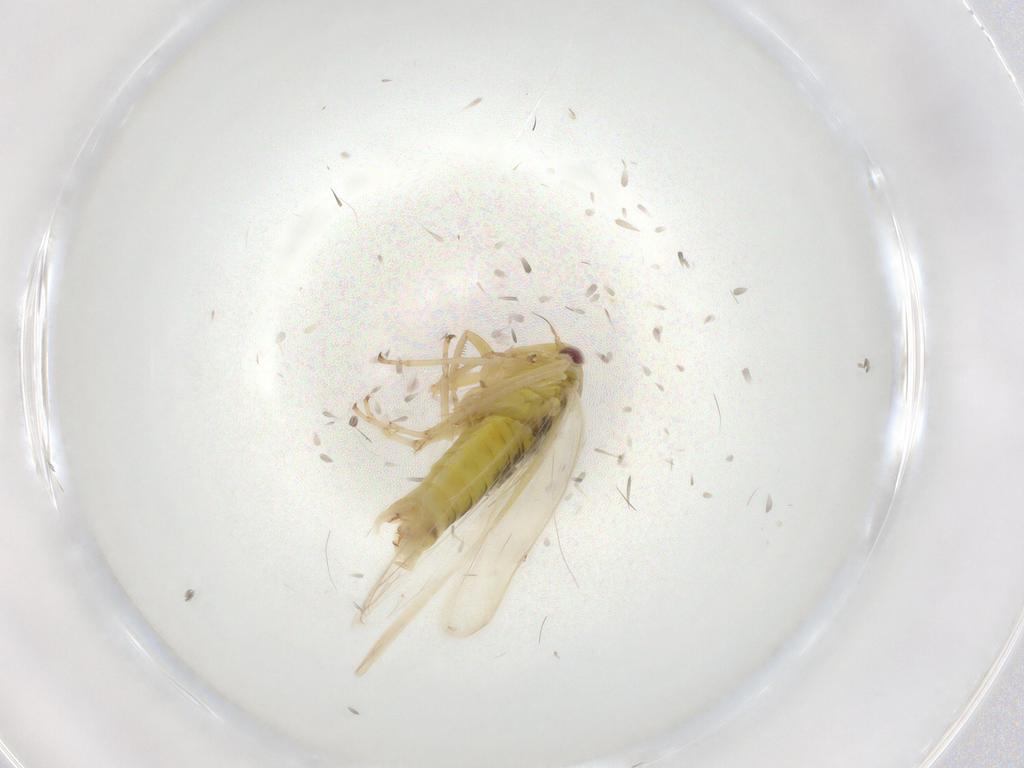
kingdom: Animalia
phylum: Arthropoda
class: Insecta
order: Hemiptera
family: Cicadellidae
